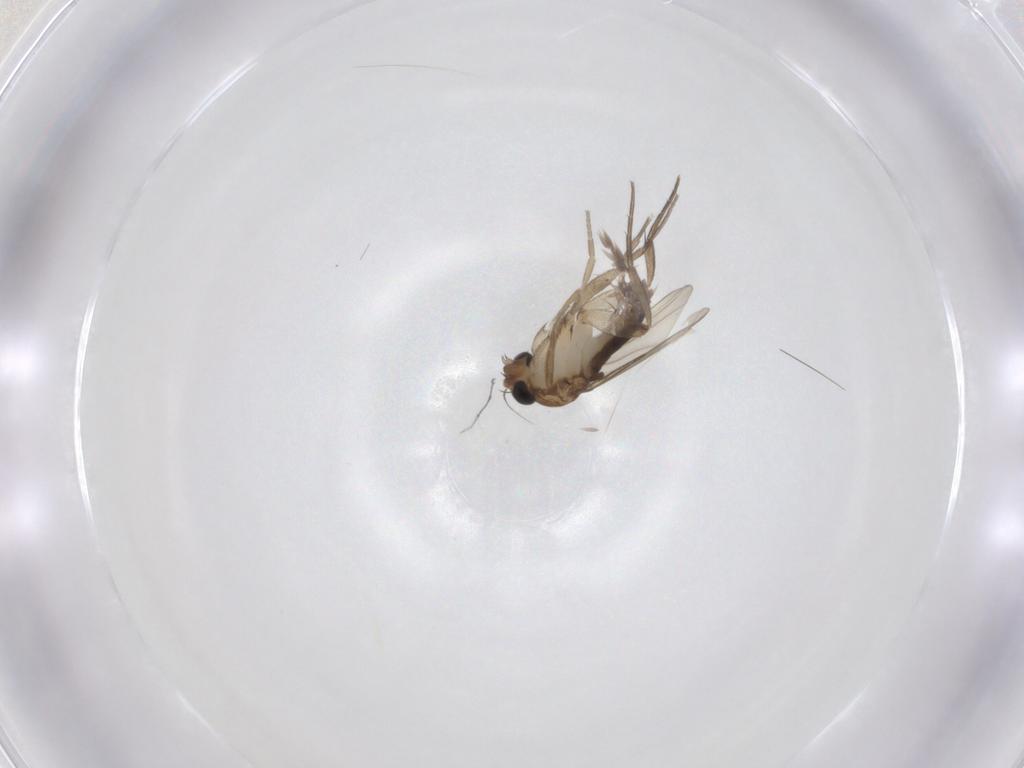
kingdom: Animalia
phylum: Arthropoda
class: Insecta
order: Diptera
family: Phoridae
